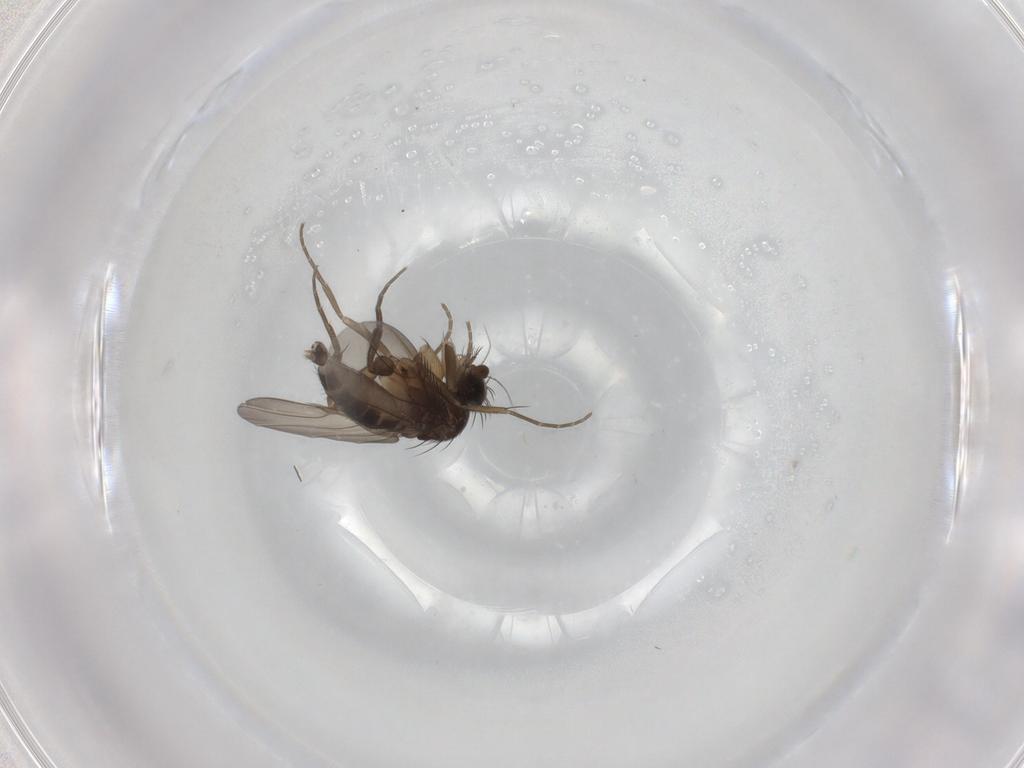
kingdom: Animalia
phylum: Arthropoda
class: Insecta
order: Diptera
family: Phoridae
